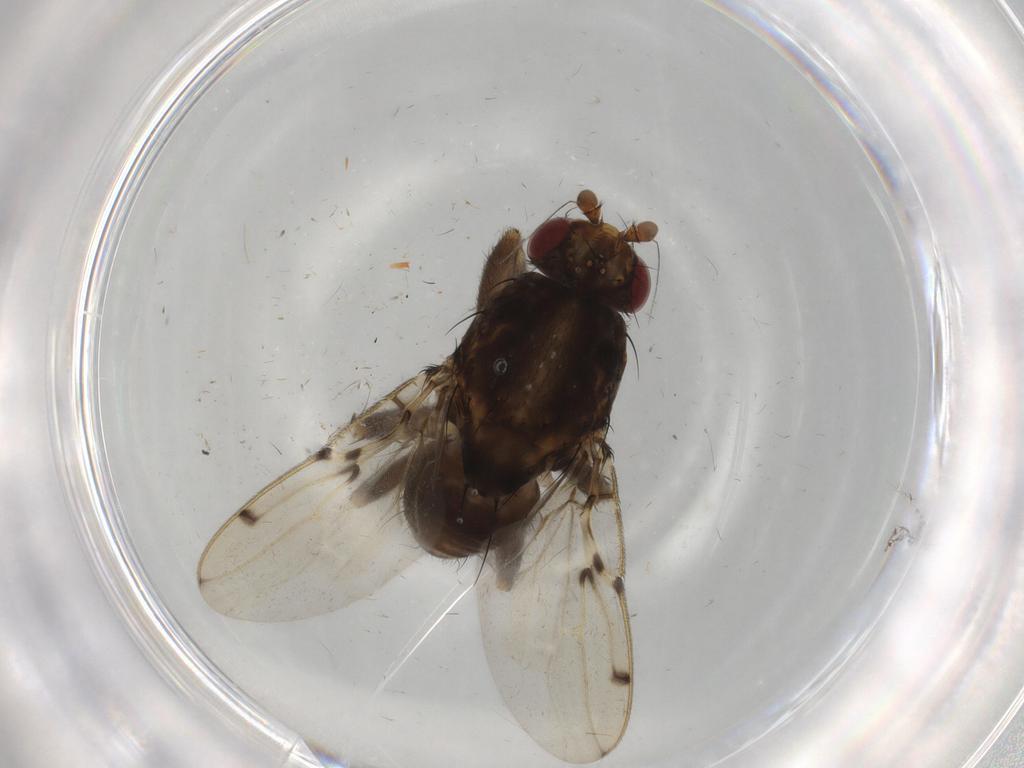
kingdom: Animalia
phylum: Arthropoda
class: Insecta
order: Diptera
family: Sphaeroceridae
